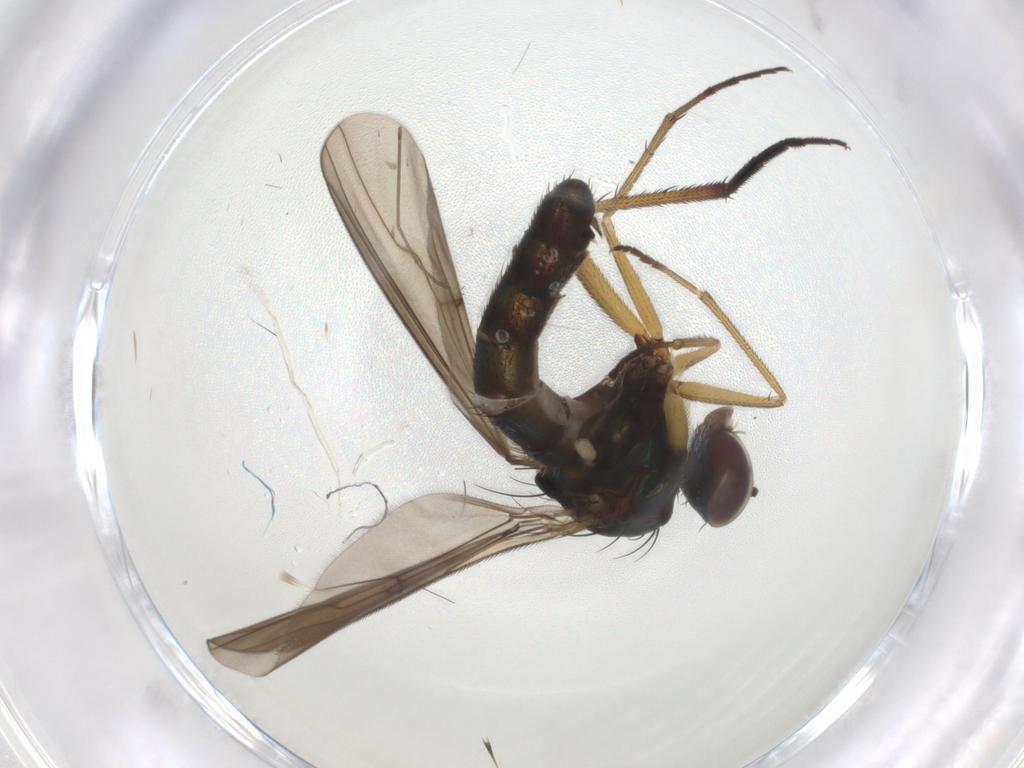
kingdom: Animalia
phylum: Arthropoda
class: Insecta
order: Diptera
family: Dolichopodidae
